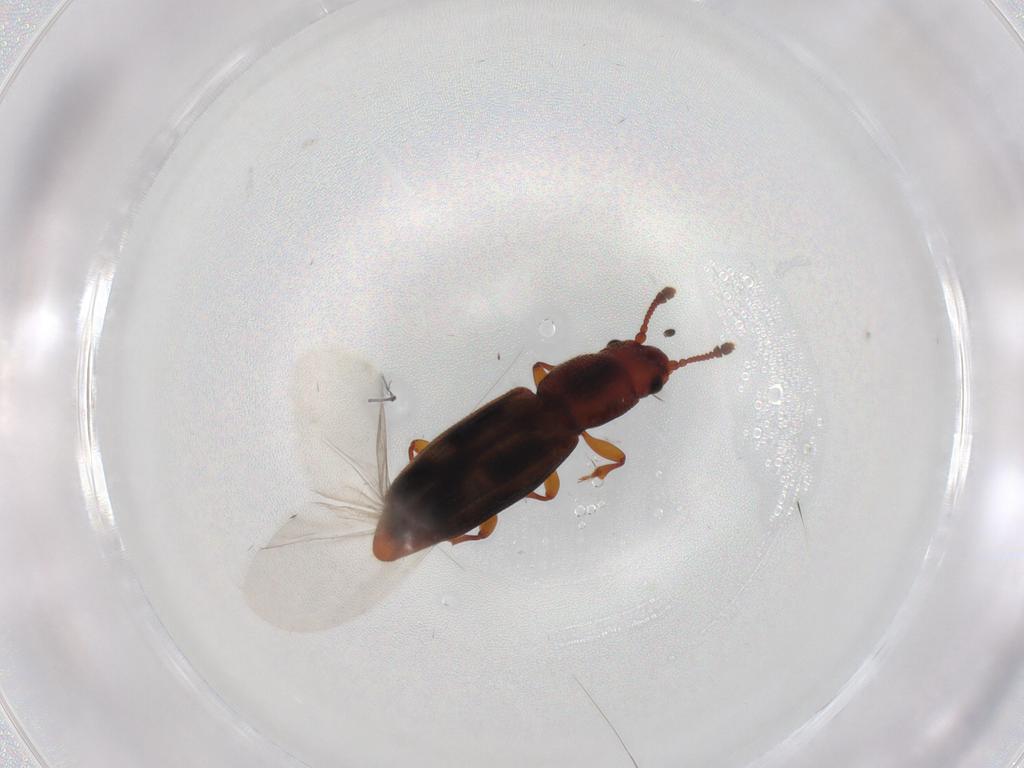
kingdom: Animalia
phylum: Arthropoda
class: Insecta
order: Coleoptera
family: Monotomidae
